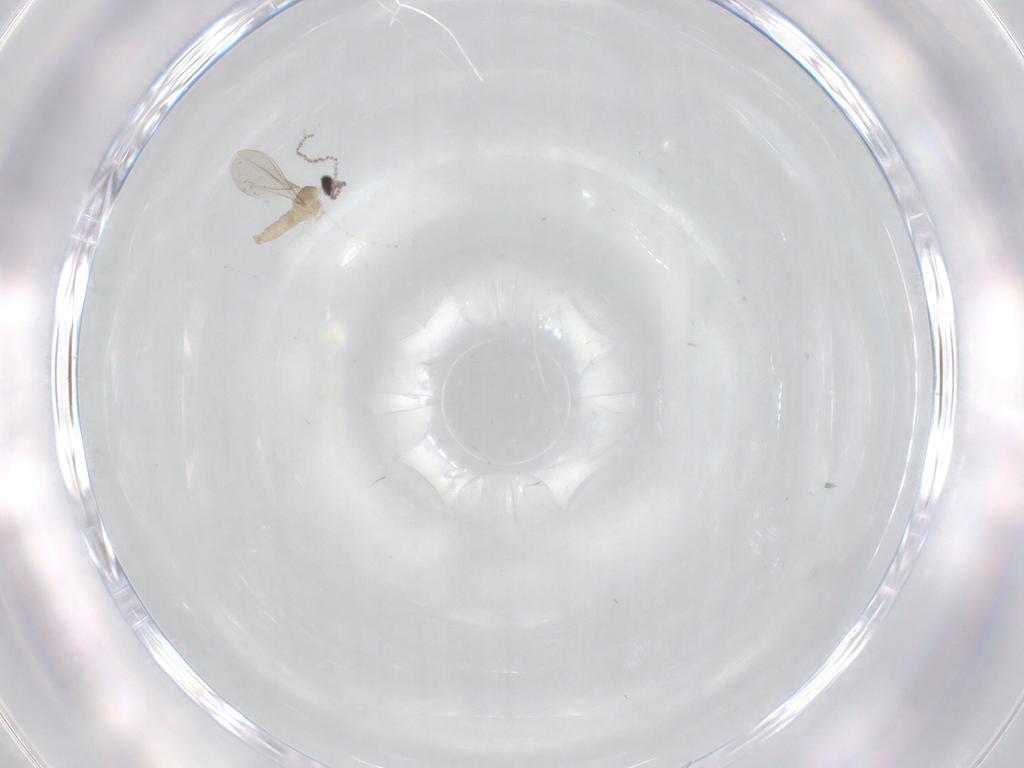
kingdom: Animalia
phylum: Arthropoda
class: Insecta
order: Diptera
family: Cecidomyiidae
